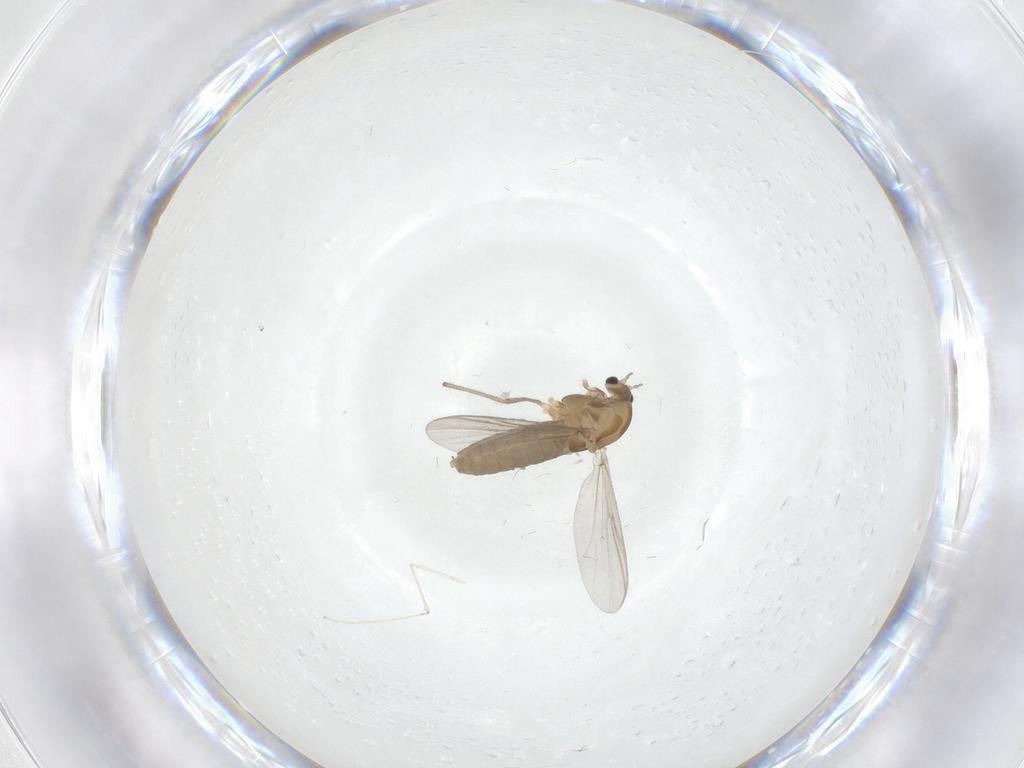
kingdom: Animalia
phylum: Arthropoda
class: Insecta
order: Diptera
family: Chironomidae
